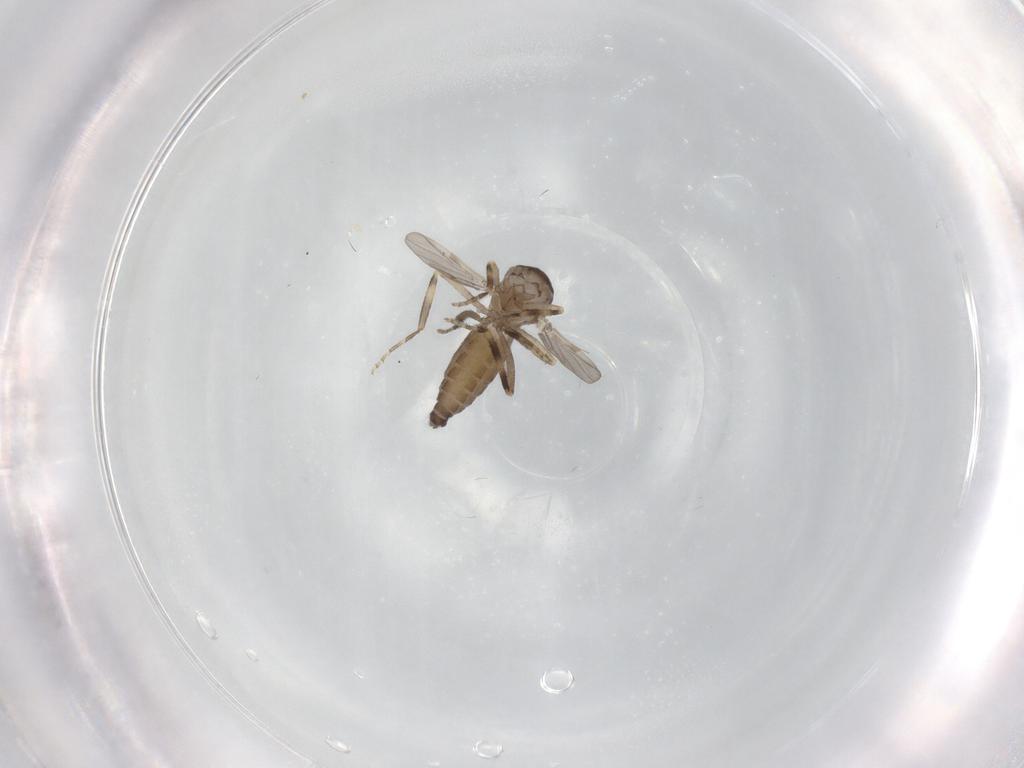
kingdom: Animalia
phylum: Arthropoda
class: Insecta
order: Diptera
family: Ceratopogonidae
